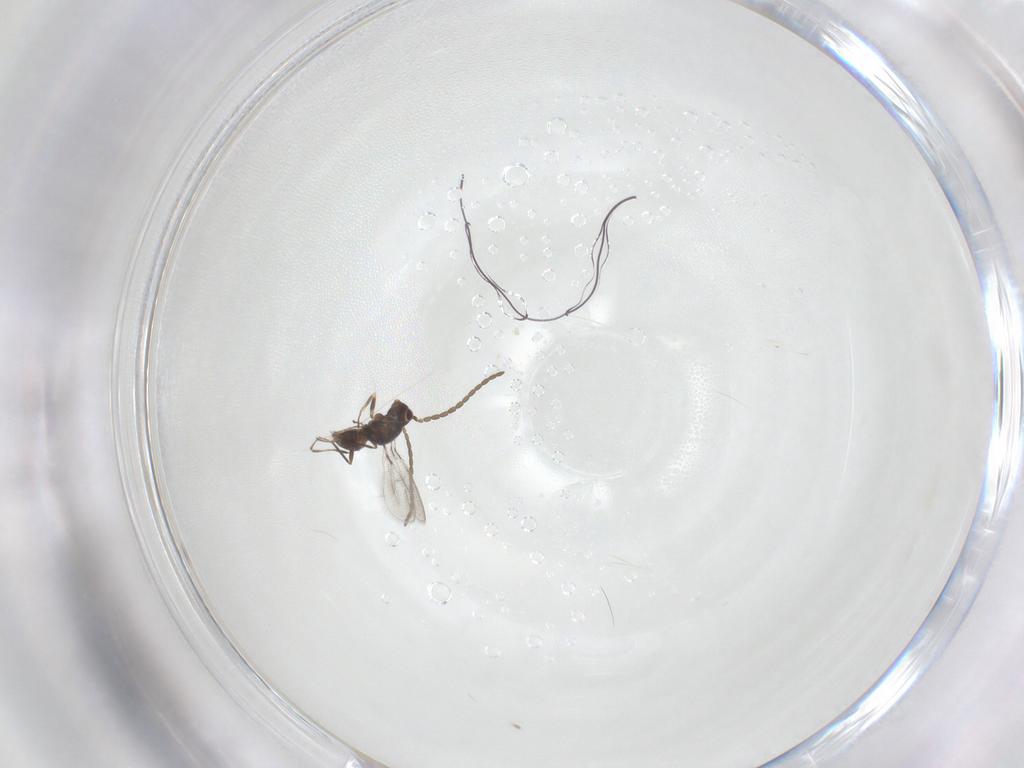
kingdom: Animalia
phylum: Arthropoda
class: Insecta
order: Hymenoptera
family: Mymaridae
